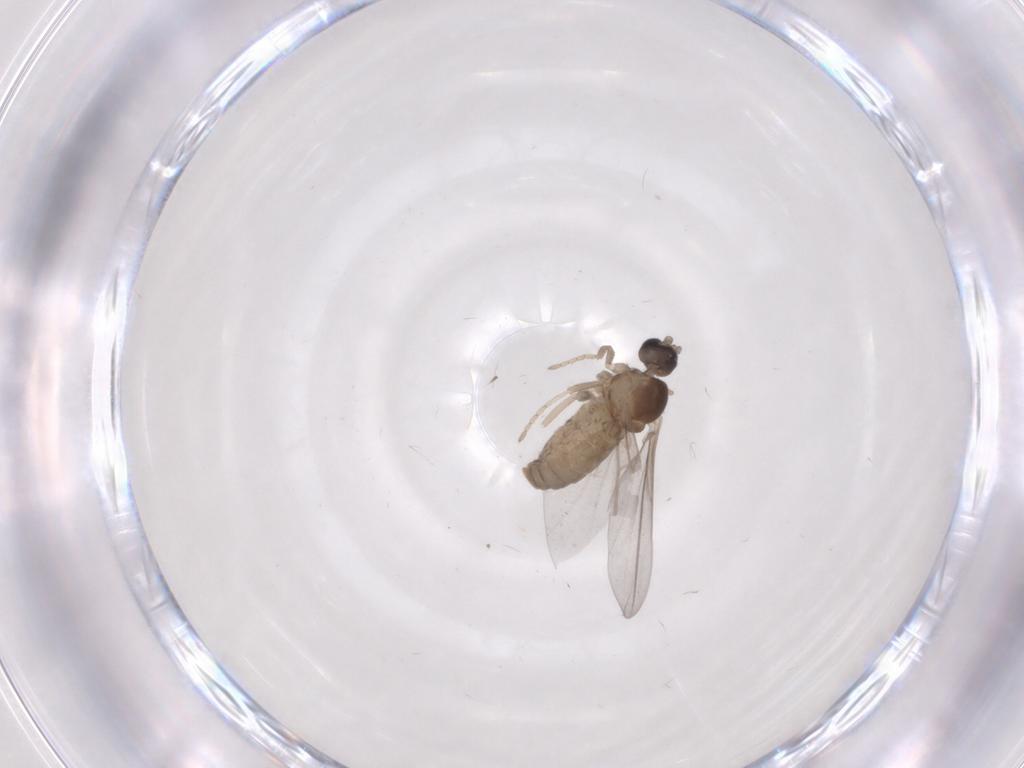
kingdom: Animalia
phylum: Arthropoda
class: Insecta
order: Diptera
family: Cecidomyiidae
